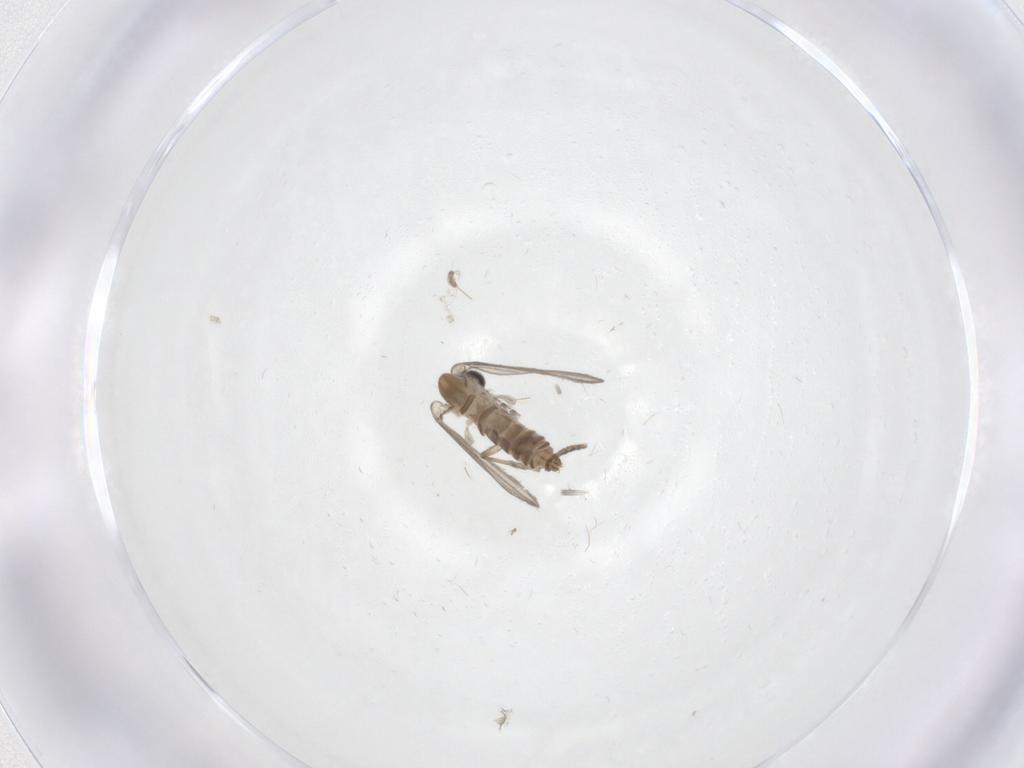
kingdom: Animalia
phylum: Arthropoda
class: Insecta
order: Diptera
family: Psychodidae
